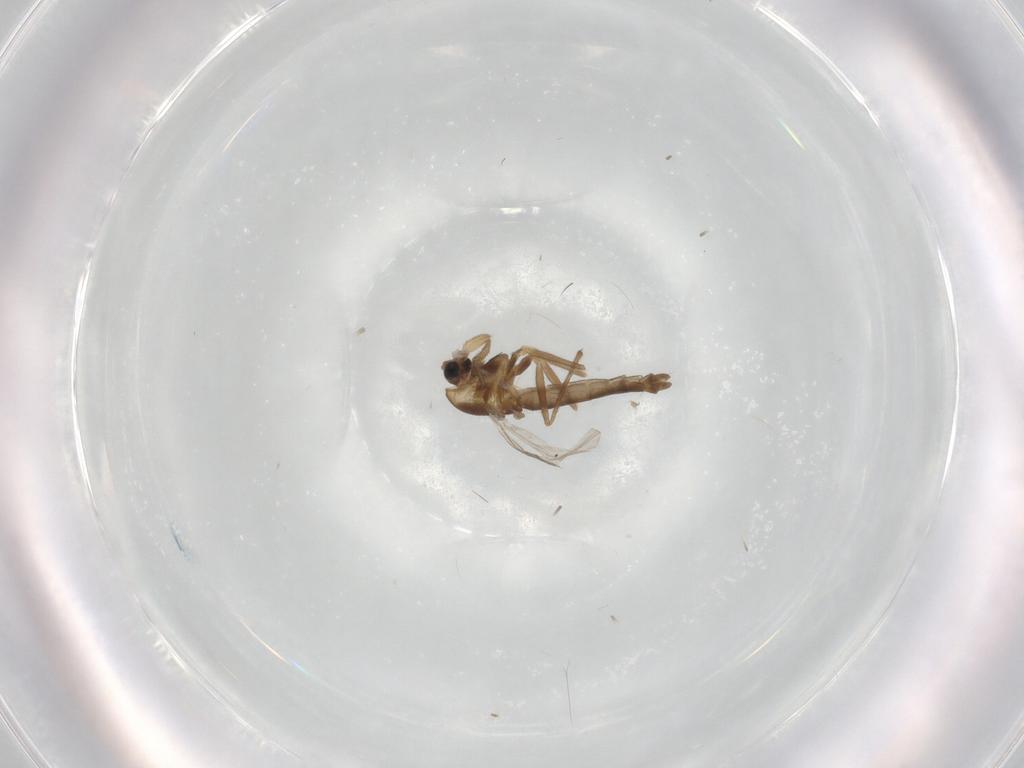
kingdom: Animalia
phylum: Arthropoda
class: Insecta
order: Diptera
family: Drosophilidae
